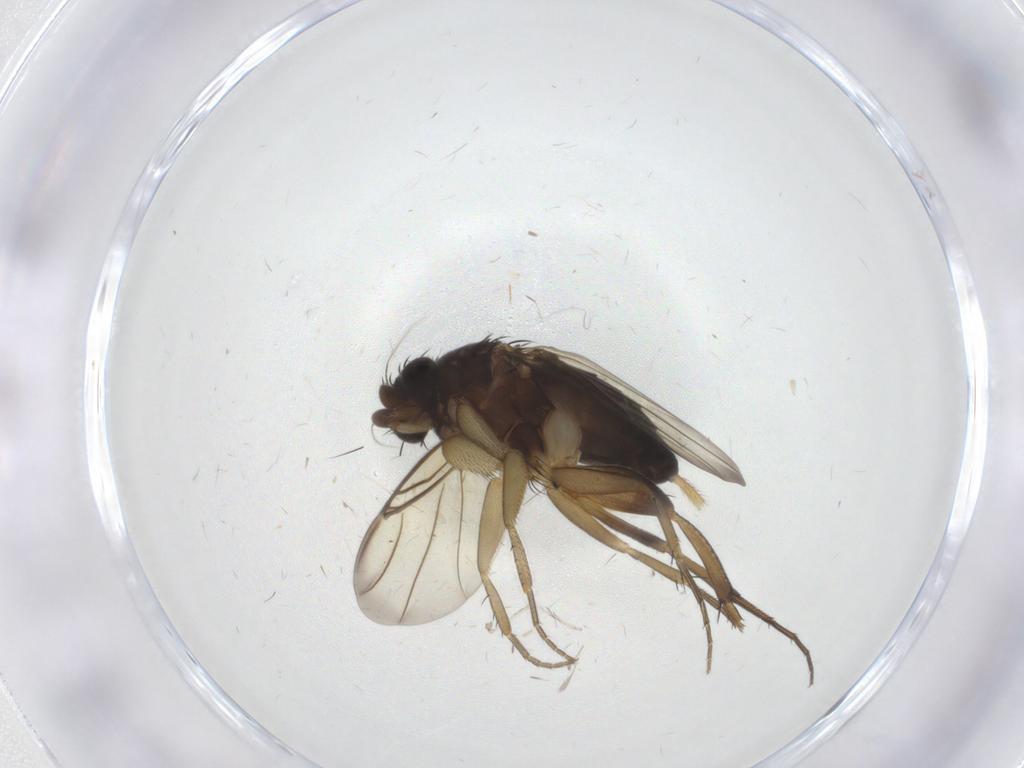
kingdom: Animalia
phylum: Arthropoda
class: Insecta
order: Diptera
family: Phoridae
